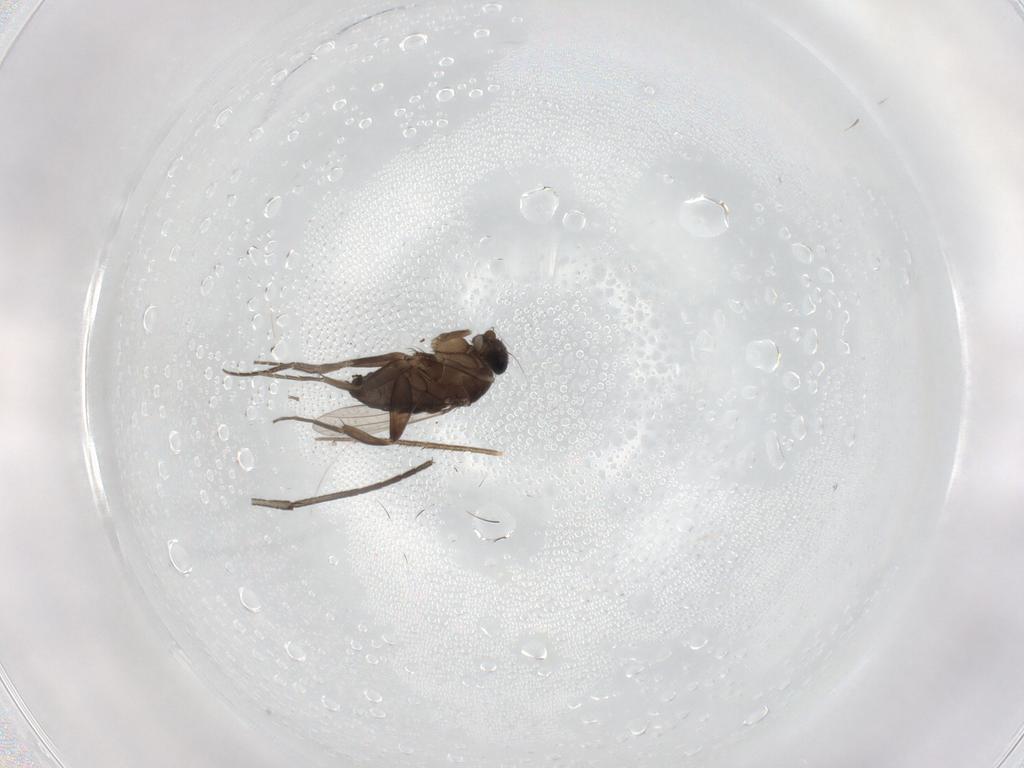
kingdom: Animalia
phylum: Arthropoda
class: Insecta
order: Diptera
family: Phoridae
